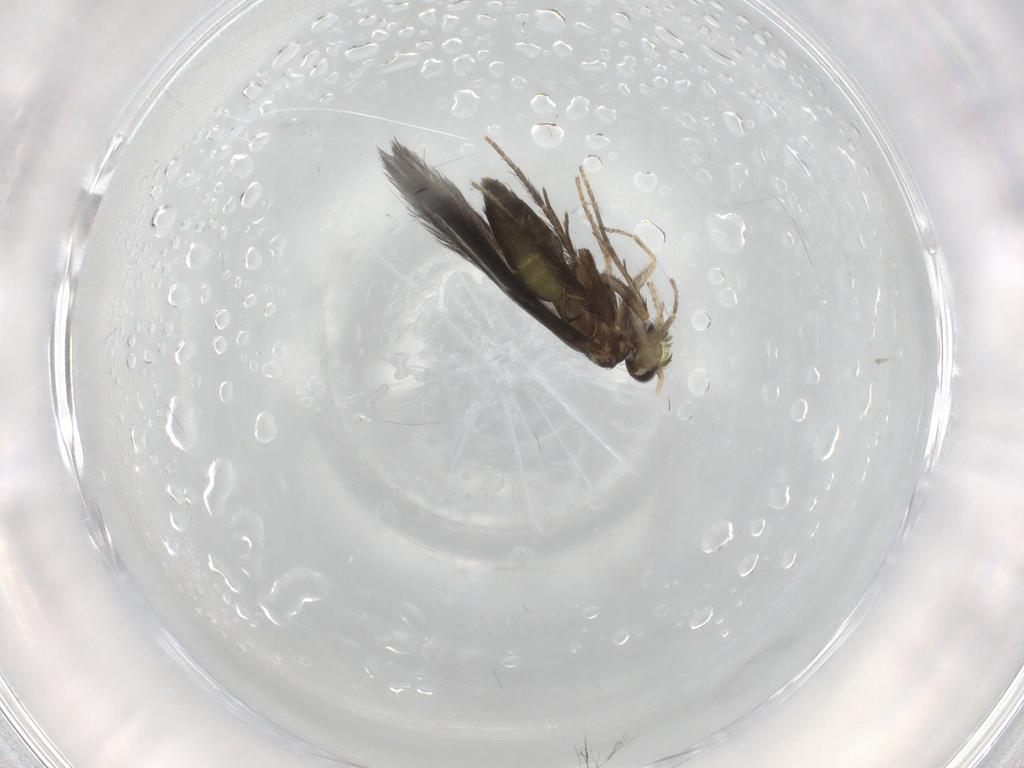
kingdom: Animalia
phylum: Arthropoda
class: Insecta
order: Trichoptera
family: Hydroptilidae
